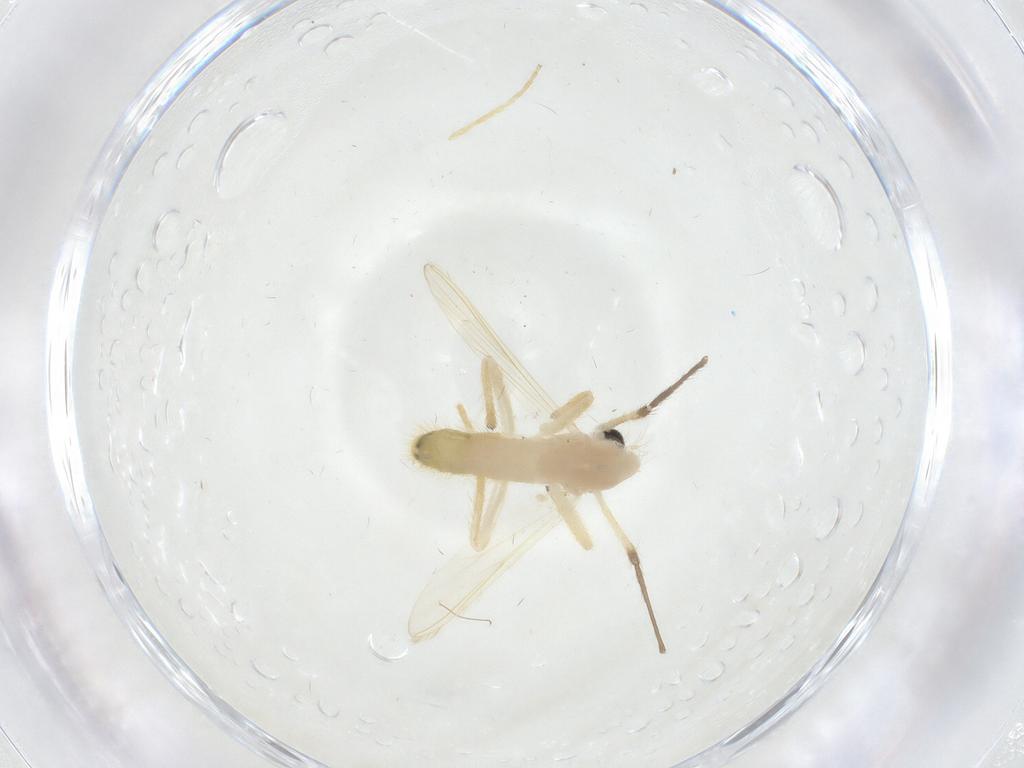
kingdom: Animalia
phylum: Arthropoda
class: Insecta
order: Diptera
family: Chironomidae
